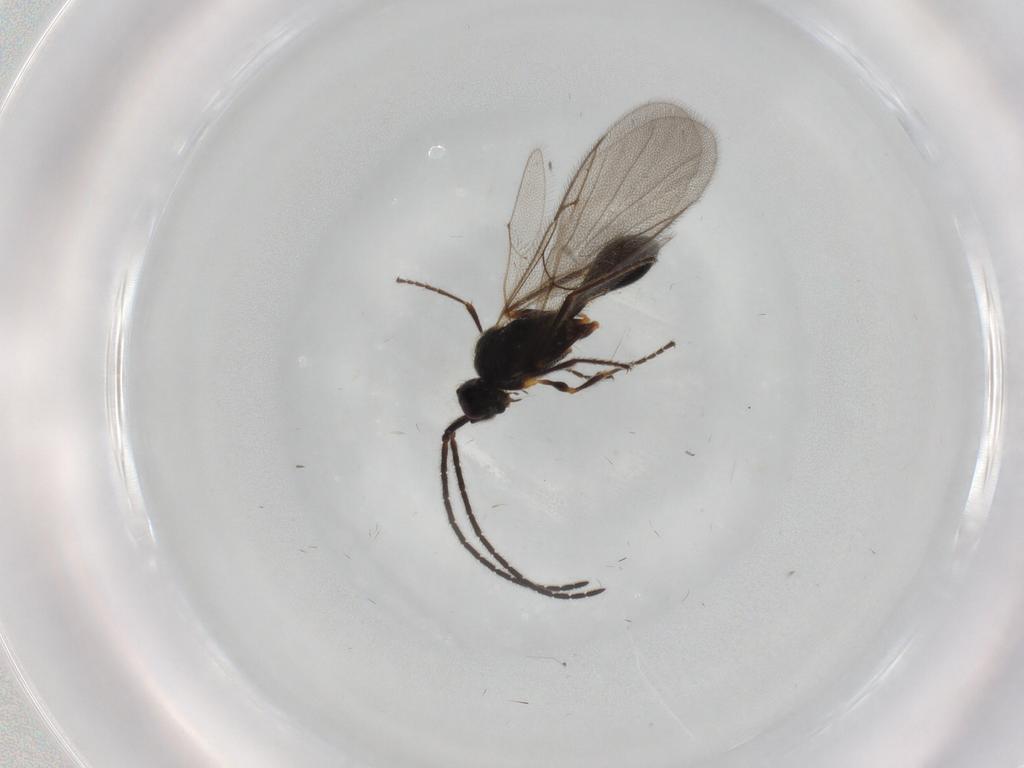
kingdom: Animalia
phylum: Arthropoda
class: Insecta
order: Hymenoptera
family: Diapriidae
